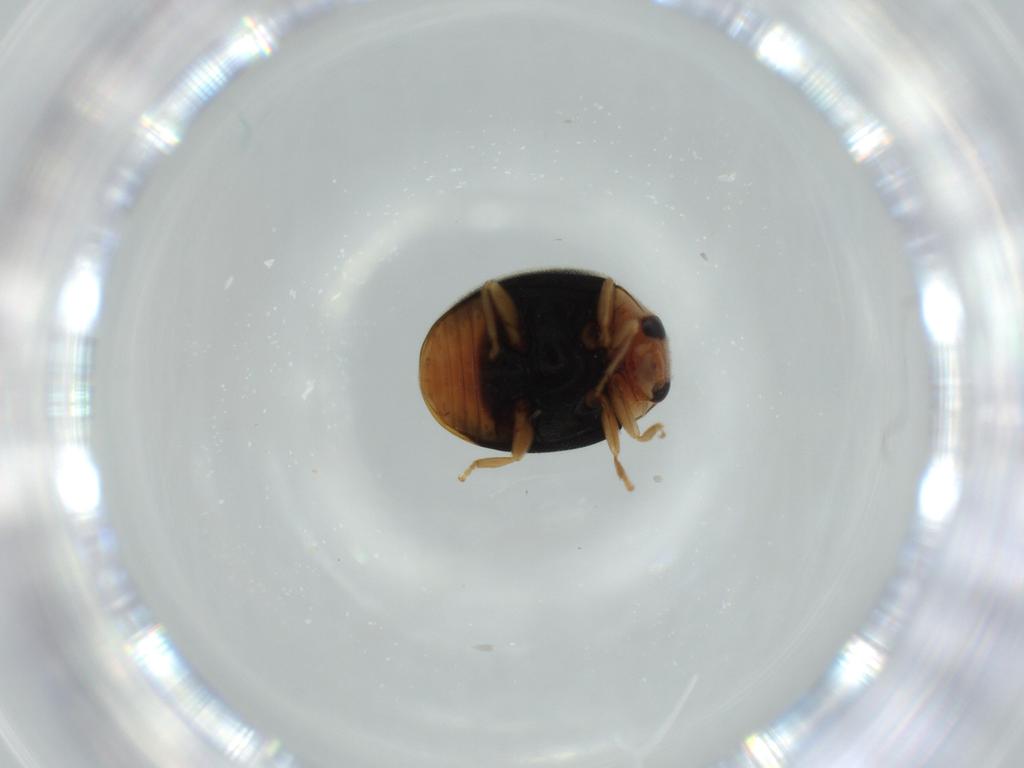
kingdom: Animalia
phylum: Arthropoda
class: Insecta
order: Coleoptera
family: Coccinellidae
